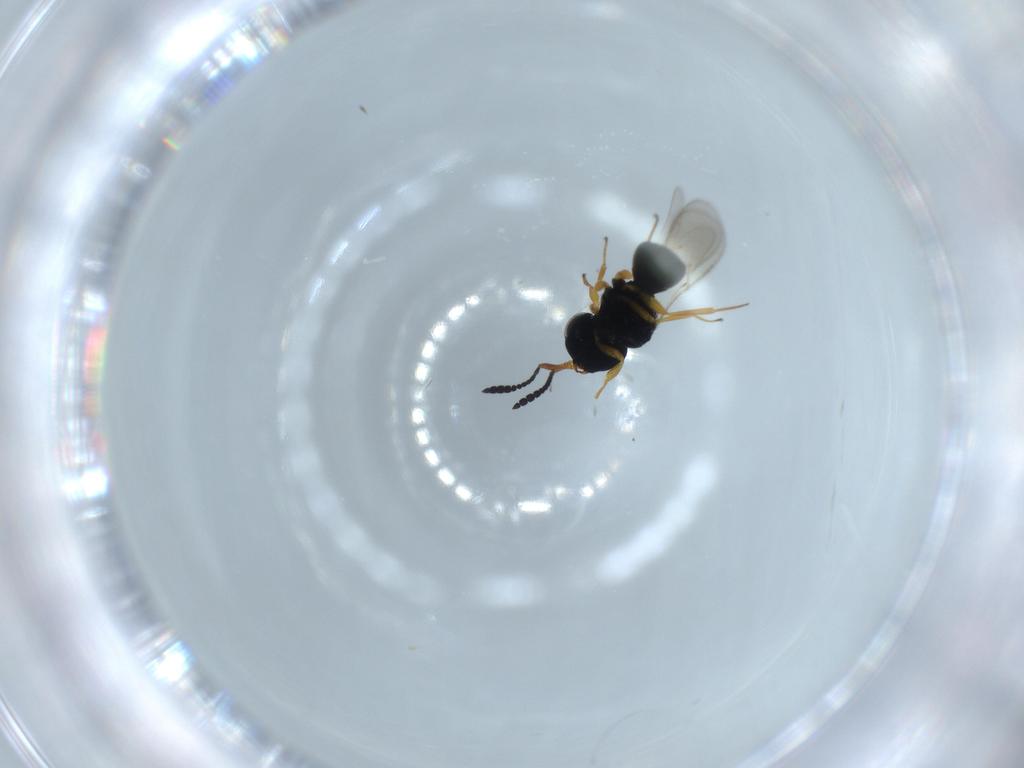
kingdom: Animalia
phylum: Arthropoda
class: Insecta
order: Hymenoptera
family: Scelionidae
